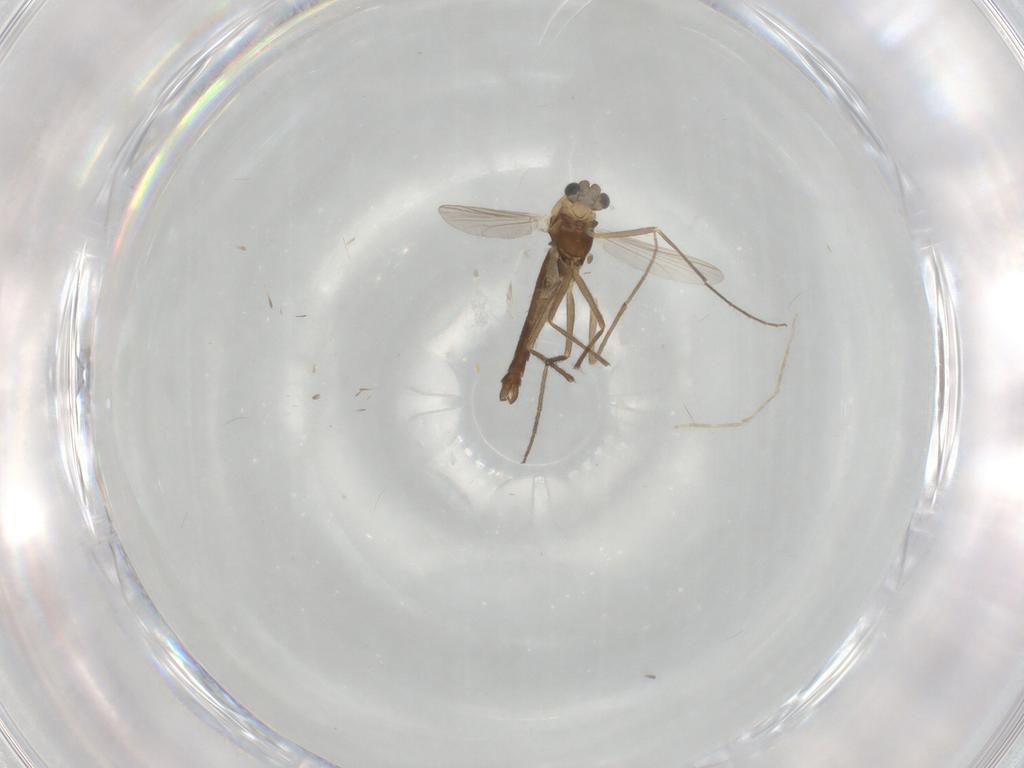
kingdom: Animalia
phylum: Arthropoda
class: Insecta
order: Diptera
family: Chironomidae
